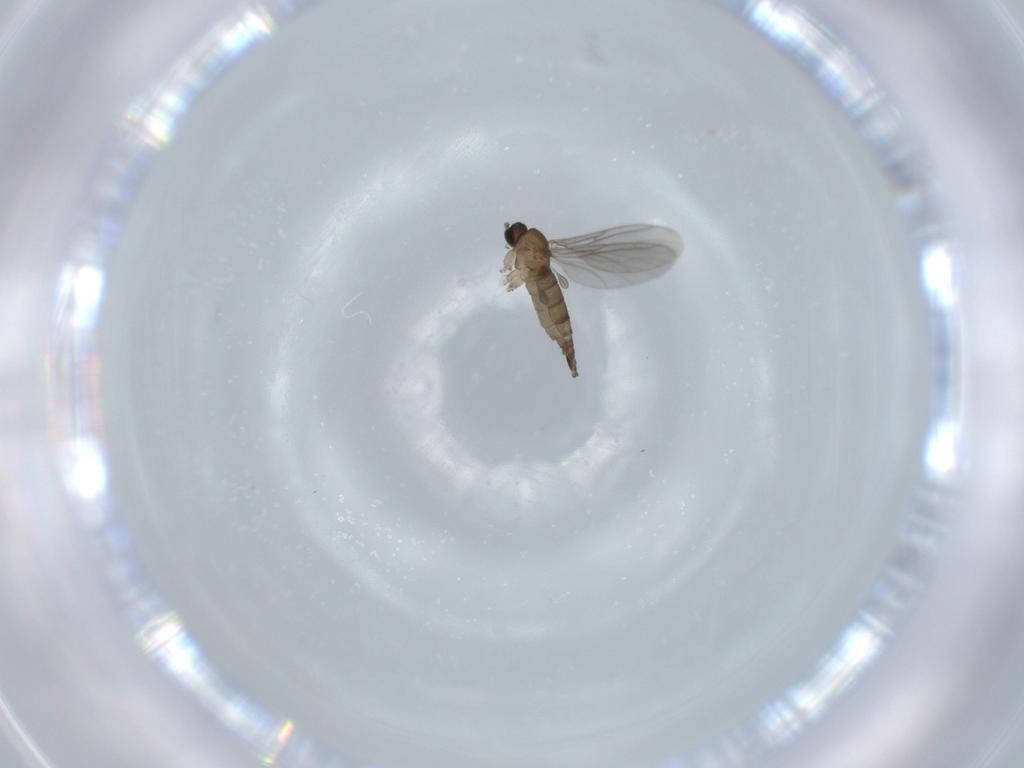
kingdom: Animalia
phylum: Arthropoda
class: Insecta
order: Diptera
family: Sciaridae
